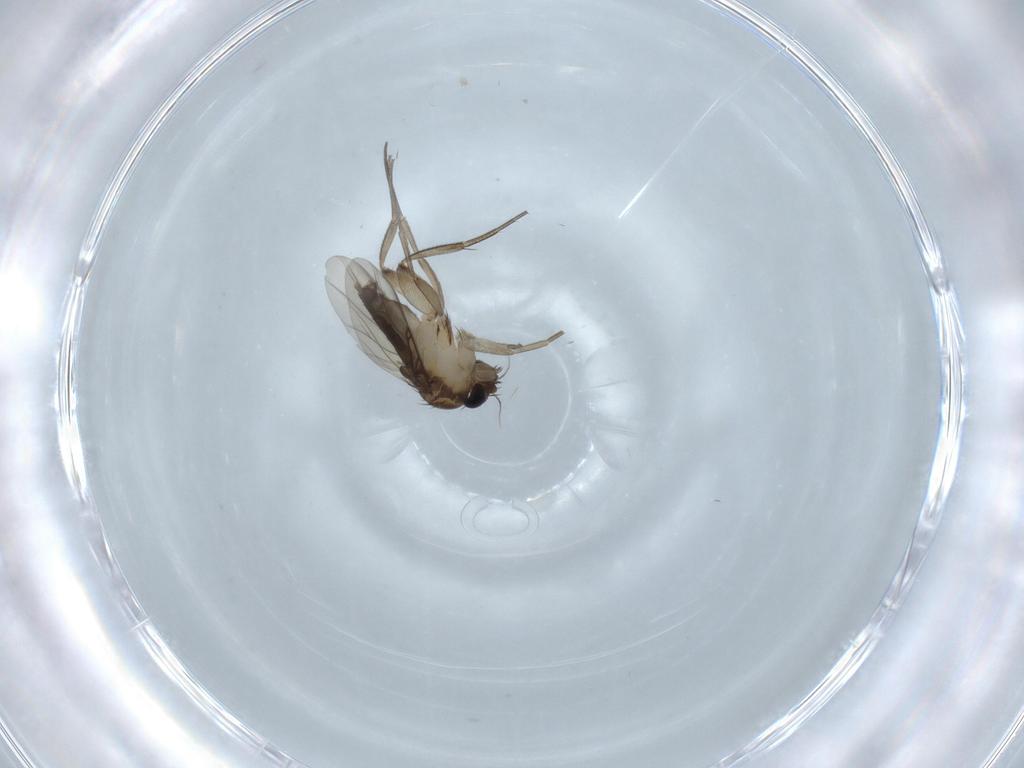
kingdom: Animalia
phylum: Arthropoda
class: Insecta
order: Diptera
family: Phoridae
